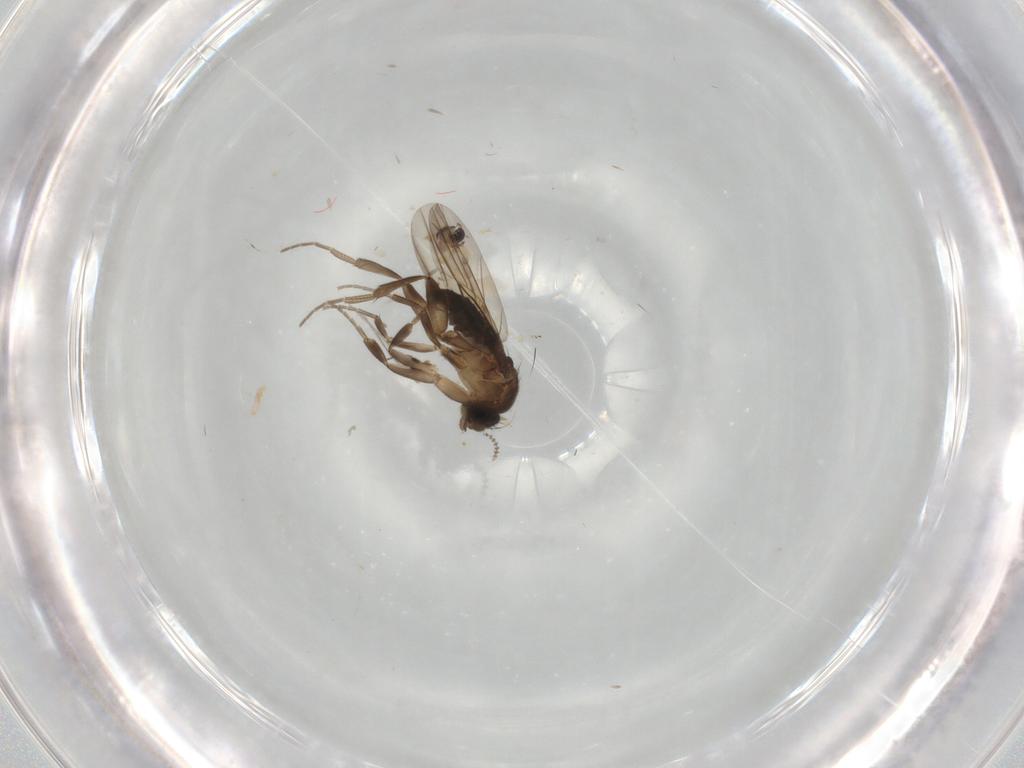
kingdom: Animalia
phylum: Arthropoda
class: Insecta
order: Diptera
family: Phoridae
